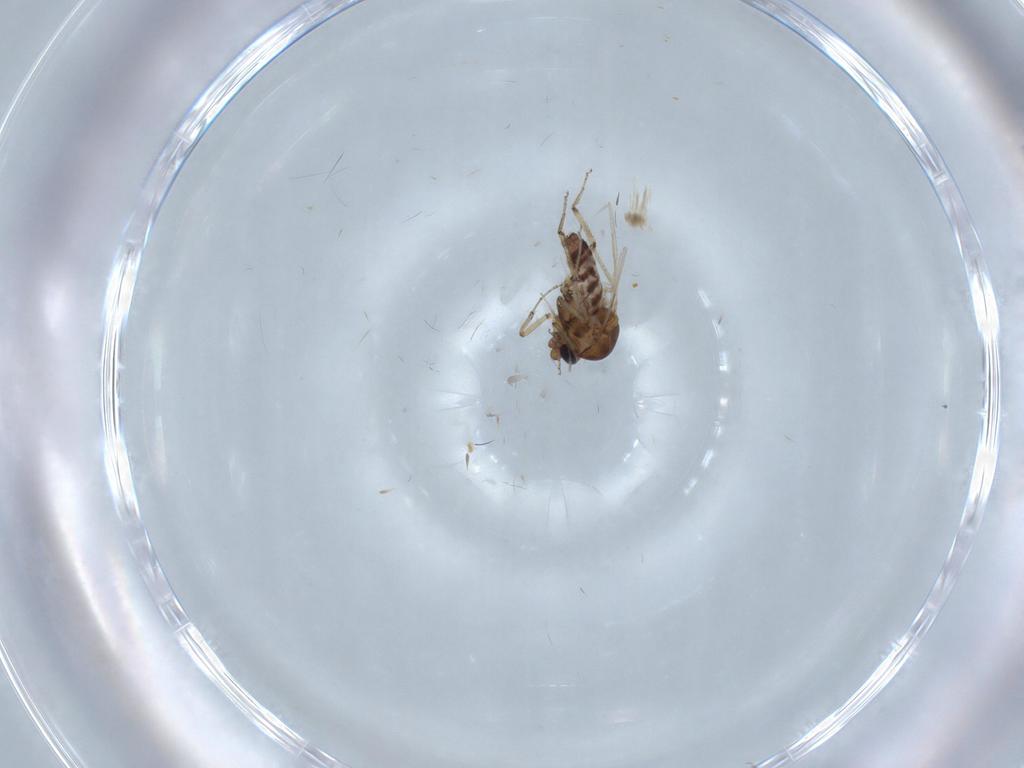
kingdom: Animalia
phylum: Arthropoda
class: Insecta
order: Diptera
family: Ceratopogonidae
